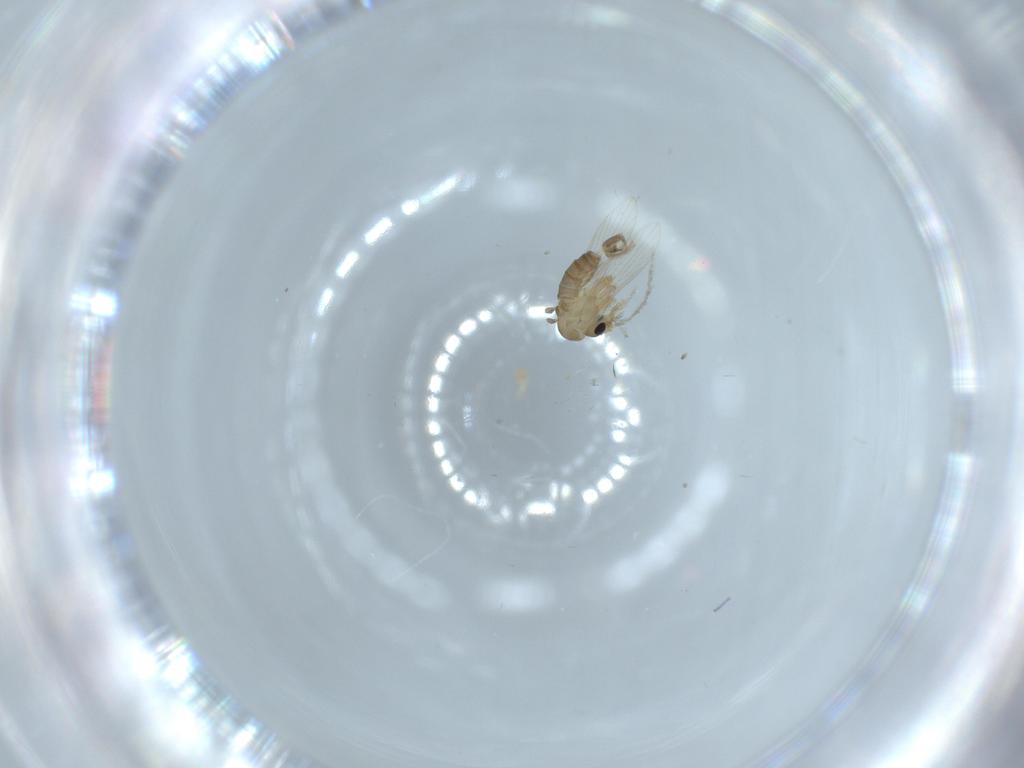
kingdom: Animalia
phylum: Arthropoda
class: Insecta
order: Diptera
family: Psychodidae
